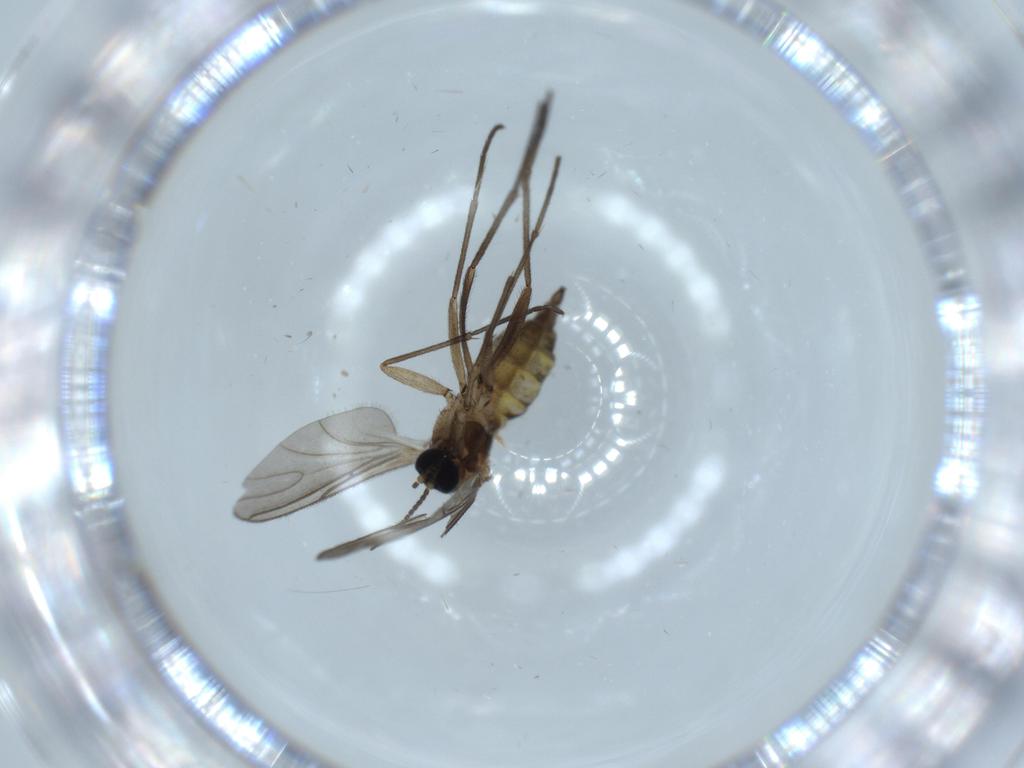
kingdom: Animalia
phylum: Arthropoda
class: Insecta
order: Diptera
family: Sciaridae
